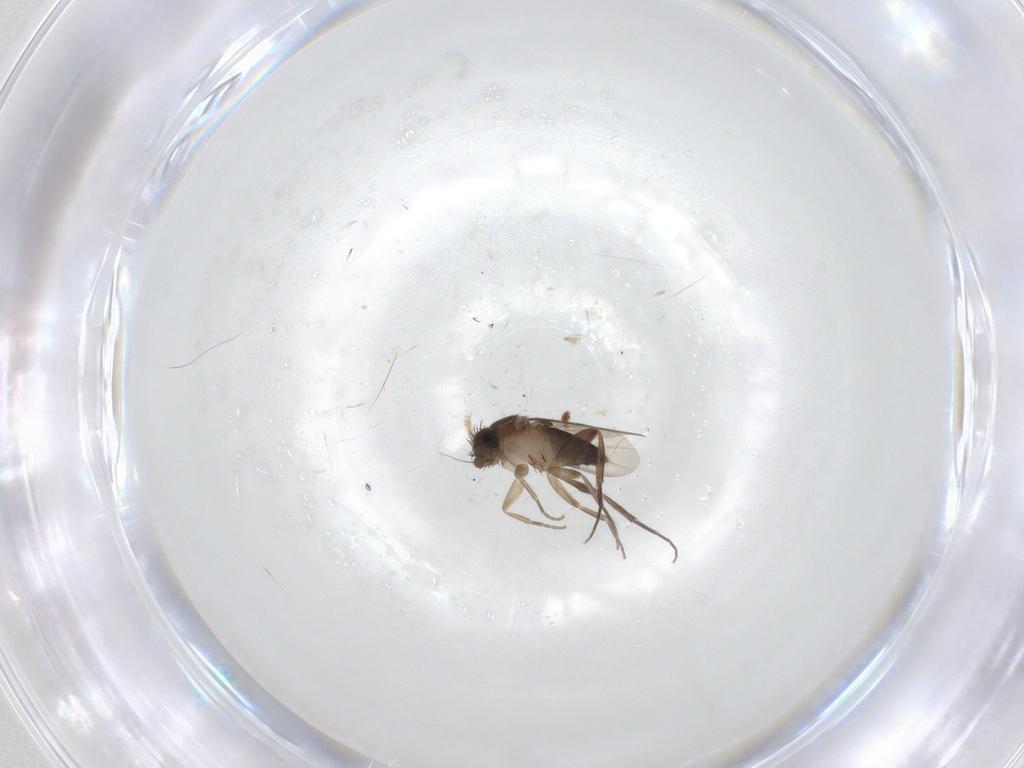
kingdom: Animalia
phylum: Arthropoda
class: Insecta
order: Diptera
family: Phoridae
